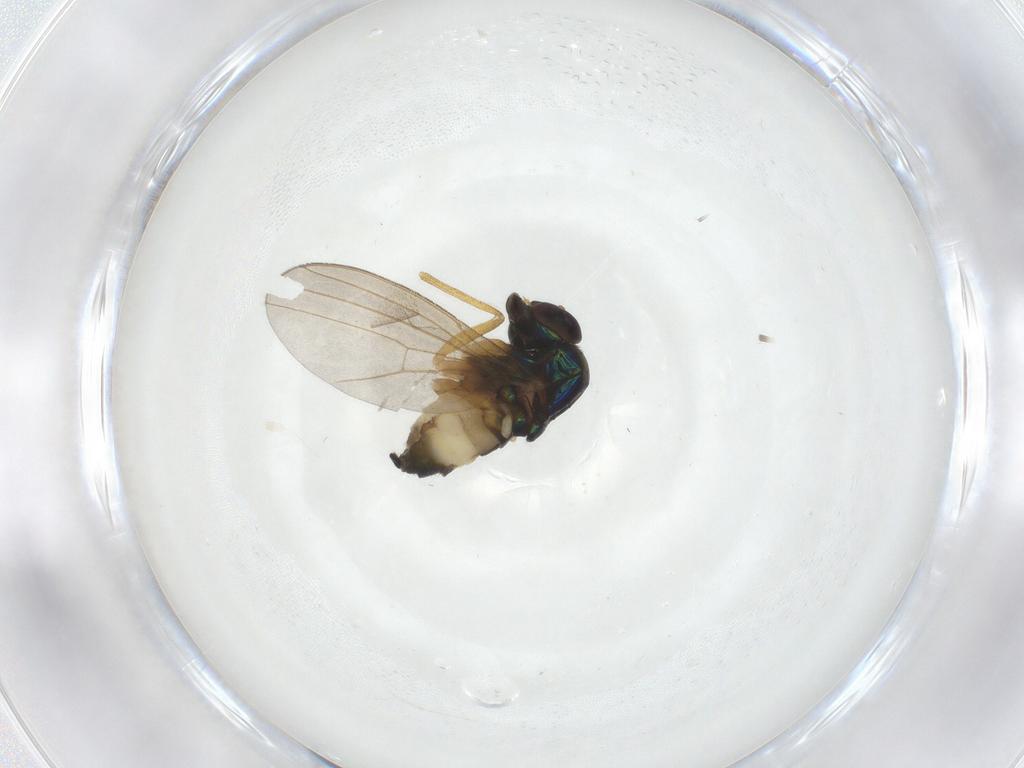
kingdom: Animalia
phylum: Arthropoda
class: Insecta
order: Diptera
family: Dolichopodidae
